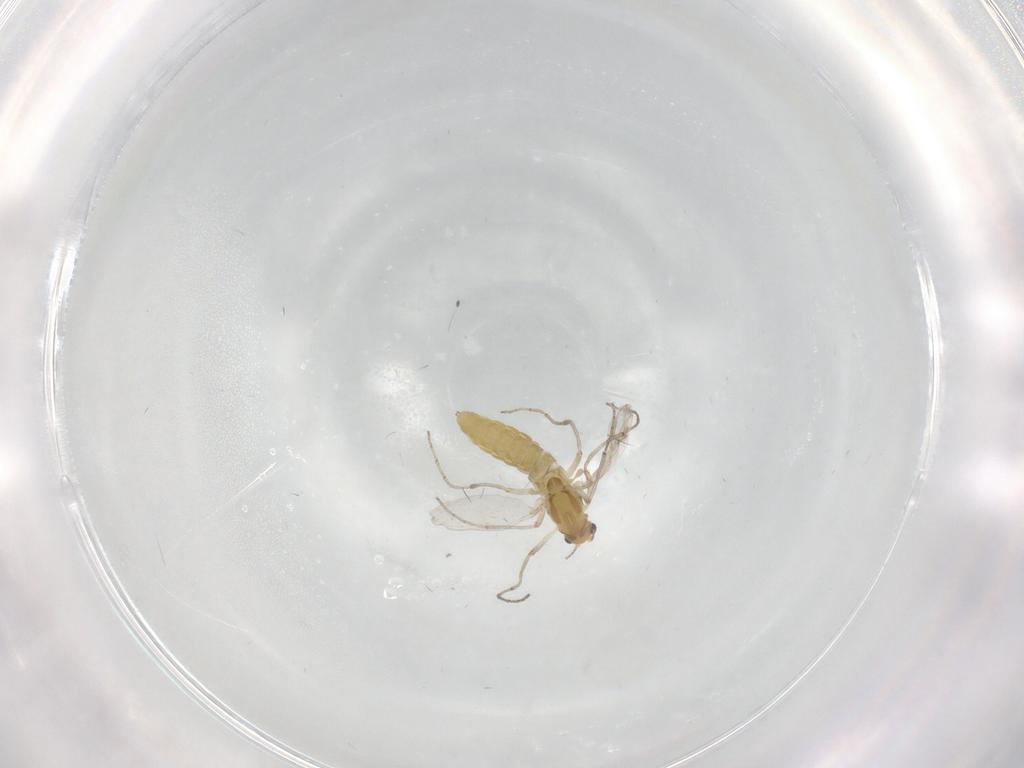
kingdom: Animalia
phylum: Arthropoda
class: Insecta
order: Diptera
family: Chironomidae
